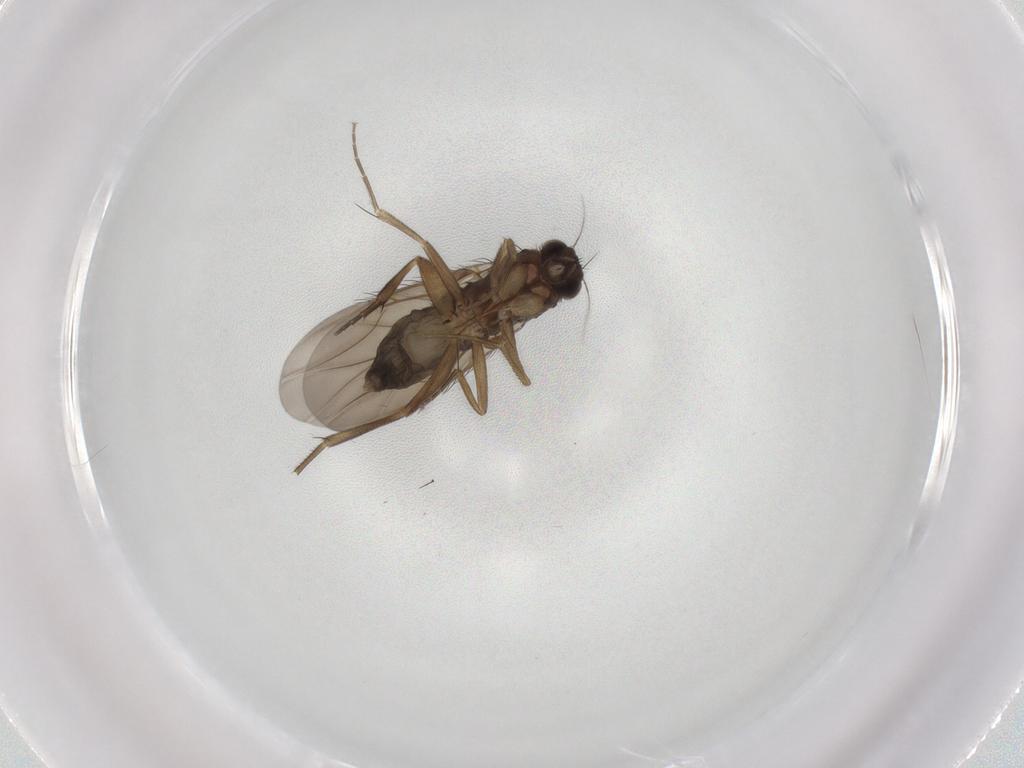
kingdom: Animalia
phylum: Arthropoda
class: Insecta
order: Diptera
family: Phoridae
